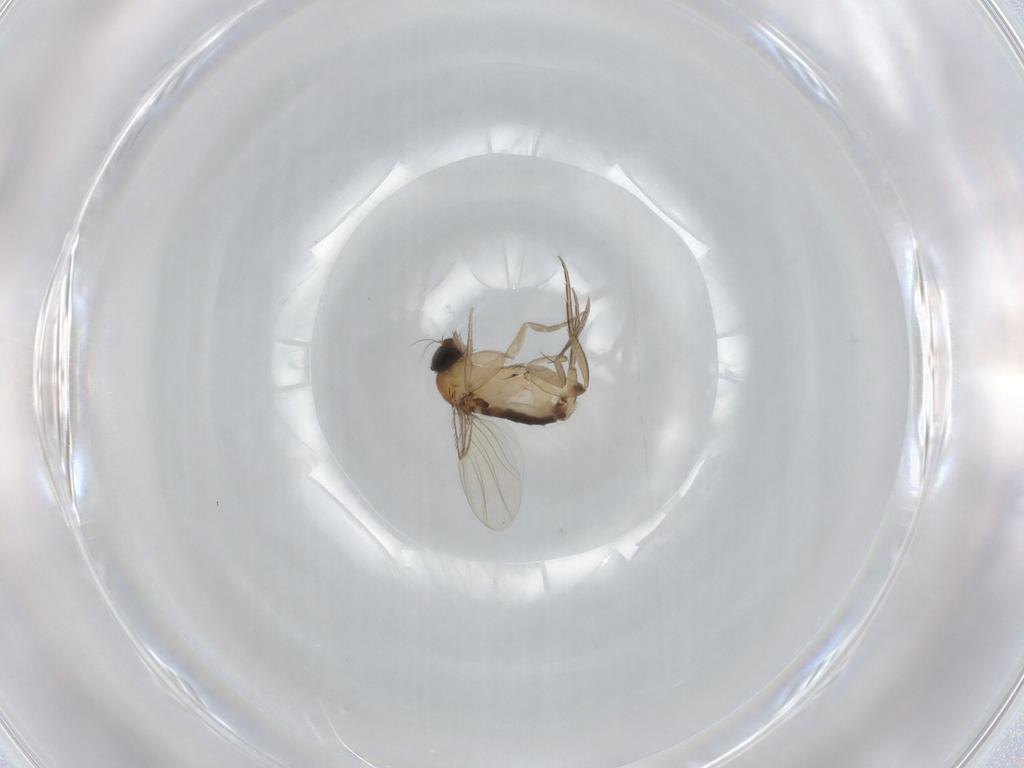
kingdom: Animalia
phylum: Arthropoda
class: Insecta
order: Diptera
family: Phoridae
